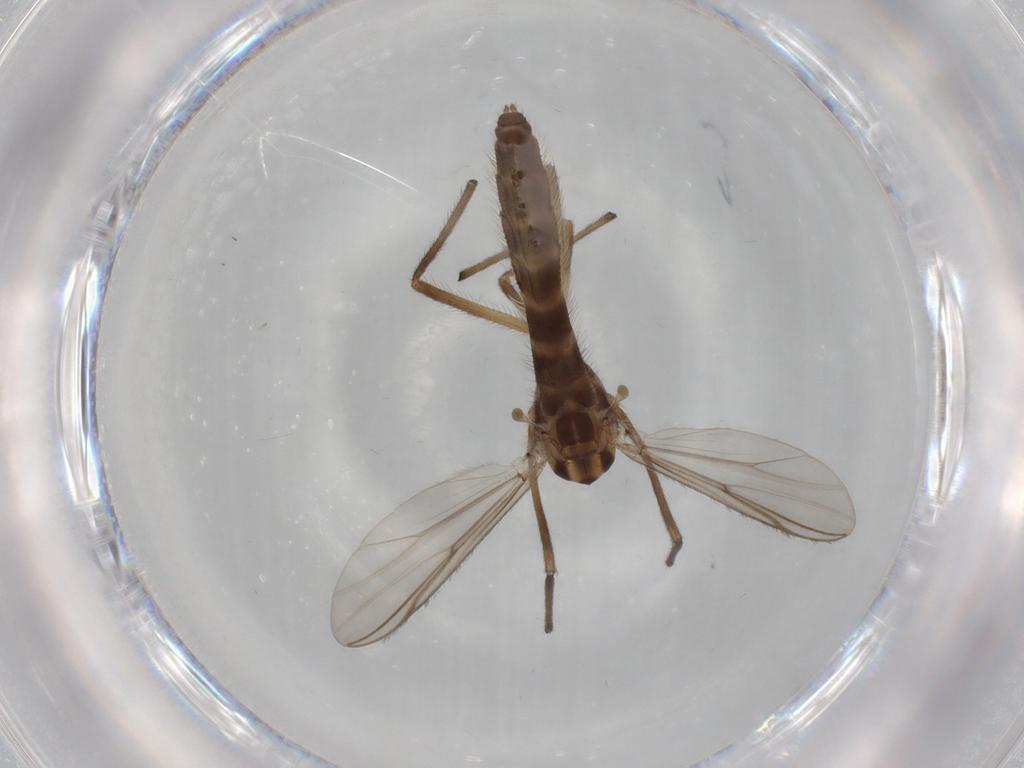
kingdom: Animalia
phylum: Arthropoda
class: Insecta
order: Diptera
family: Chironomidae
